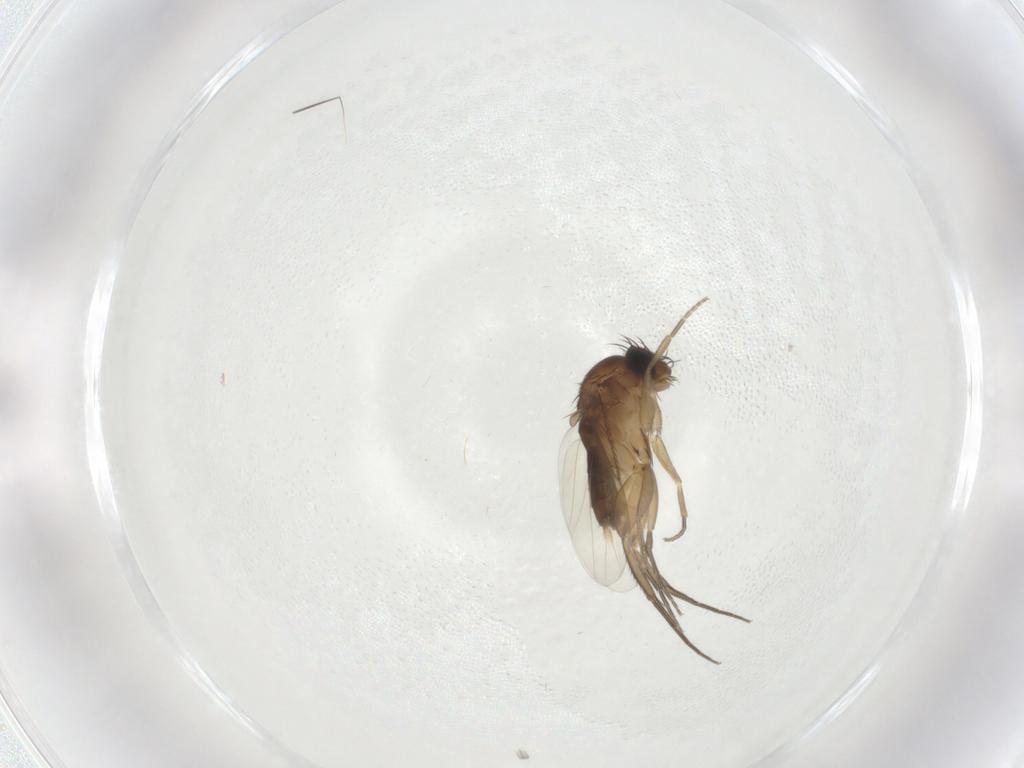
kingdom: Animalia
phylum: Arthropoda
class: Insecta
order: Diptera
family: Phoridae
